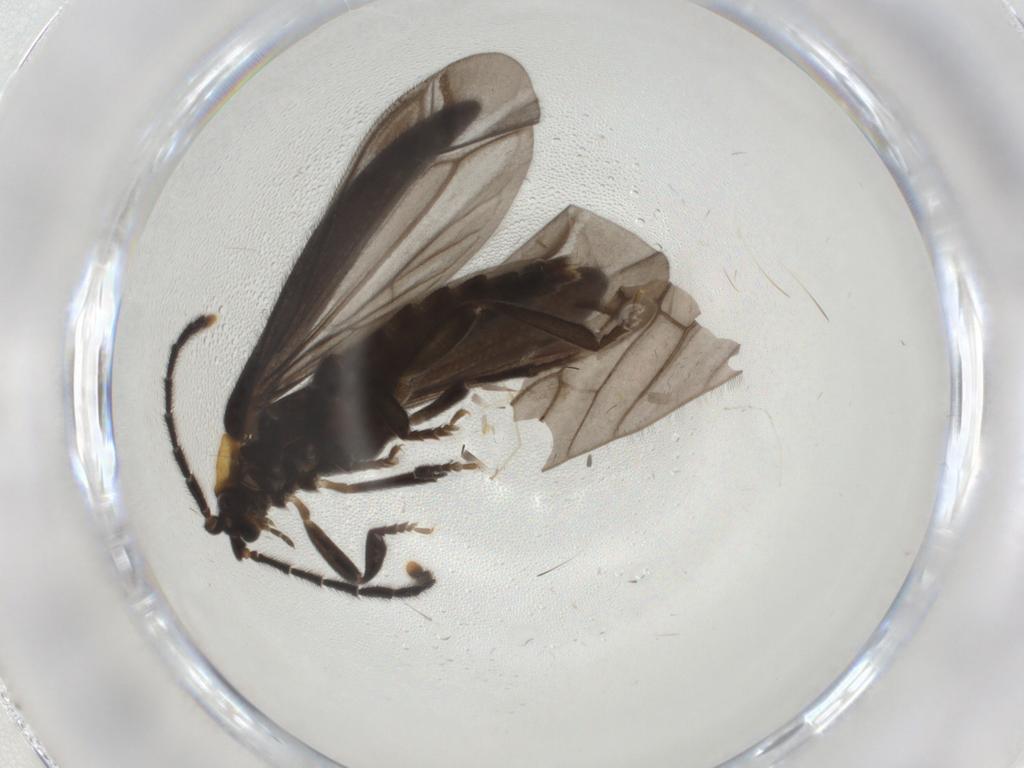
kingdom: Animalia
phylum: Arthropoda
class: Insecta
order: Coleoptera
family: Lycidae
